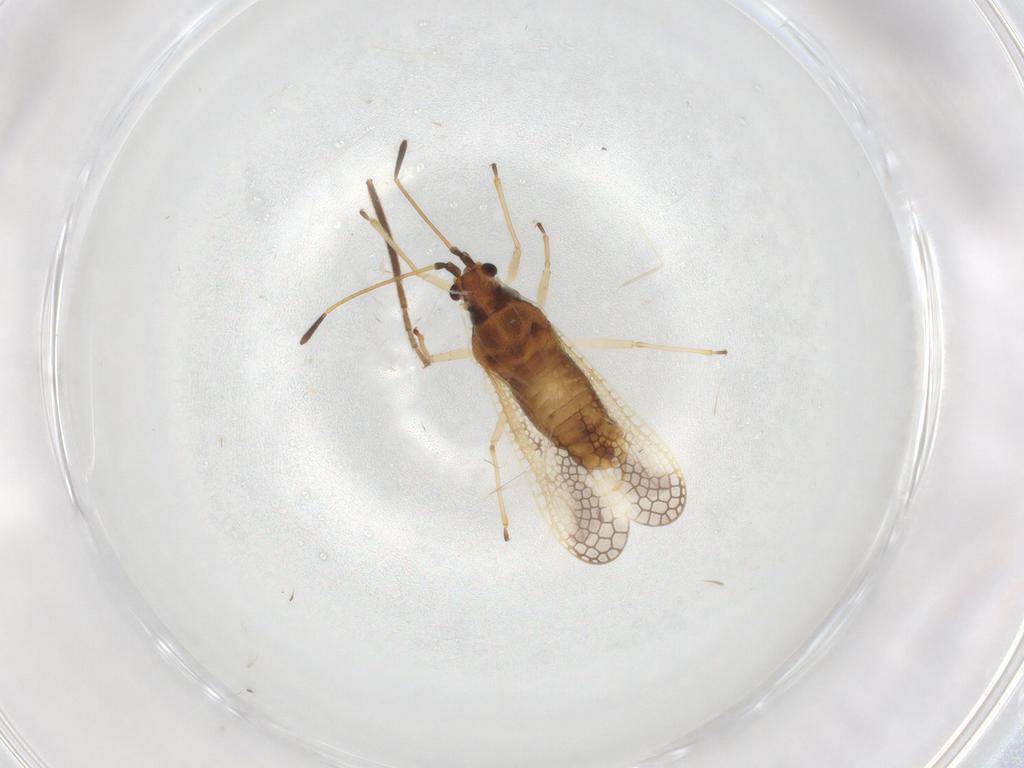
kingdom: Animalia
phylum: Arthropoda
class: Insecta
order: Hemiptera
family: Tingidae
